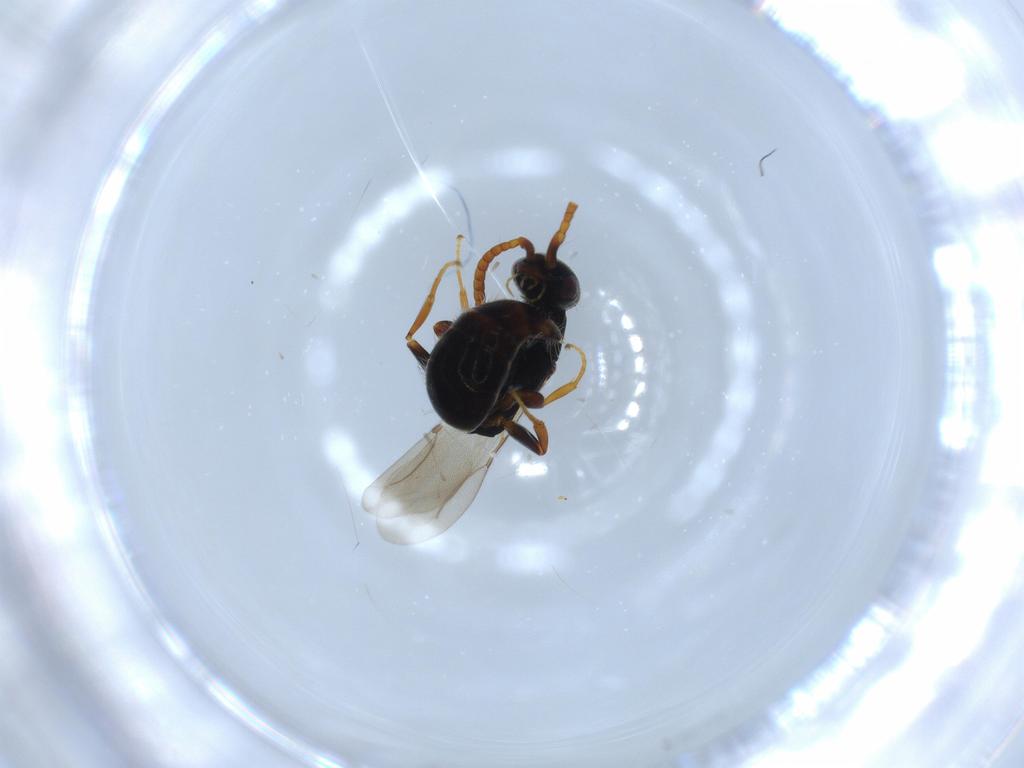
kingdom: Animalia
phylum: Arthropoda
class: Insecta
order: Hymenoptera
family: Bethylidae
